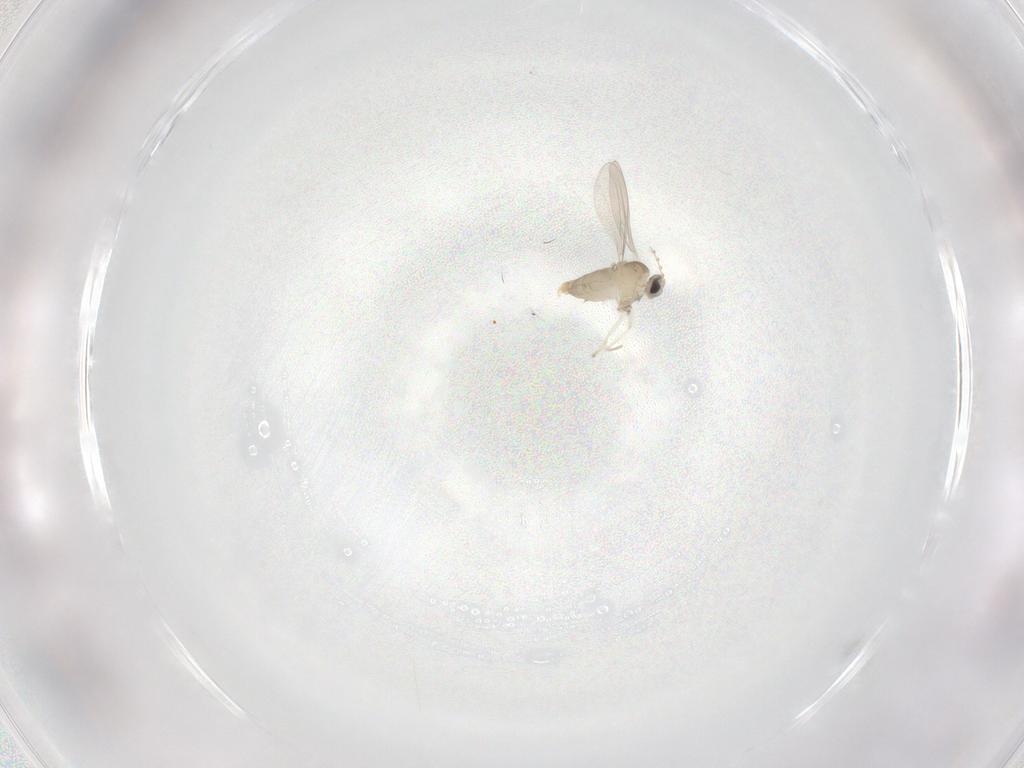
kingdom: Animalia
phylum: Arthropoda
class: Insecta
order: Diptera
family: Cecidomyiidae
